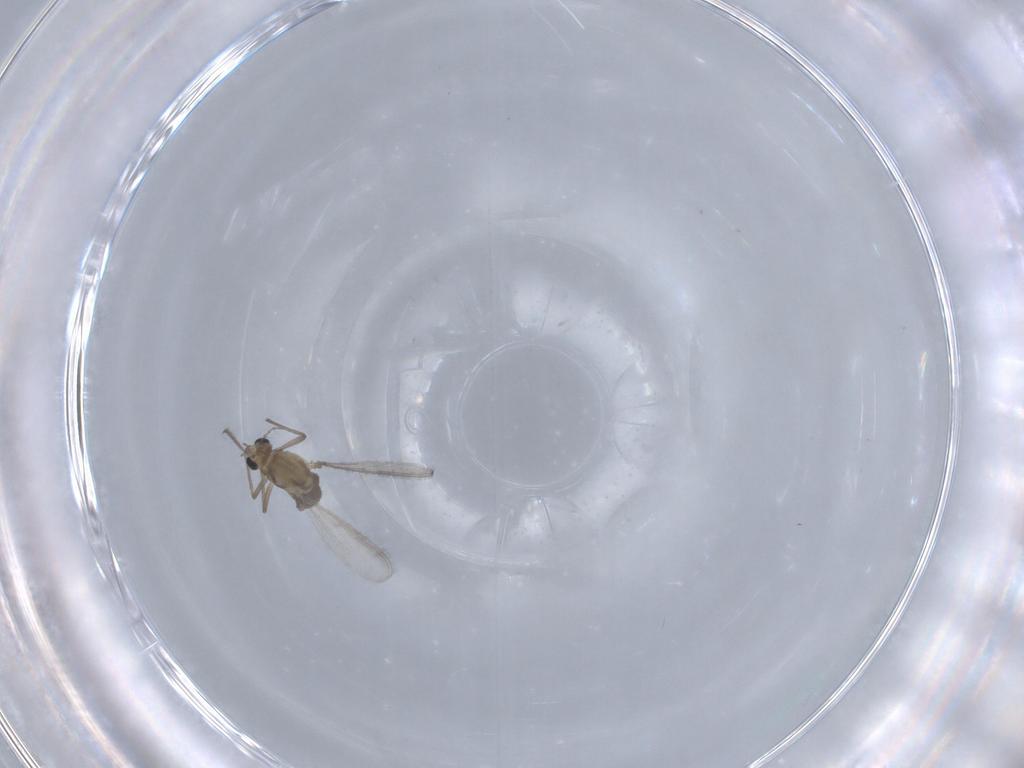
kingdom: Animalia
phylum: Arthropoda
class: Insecta
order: Diptera
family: Chironomidae
